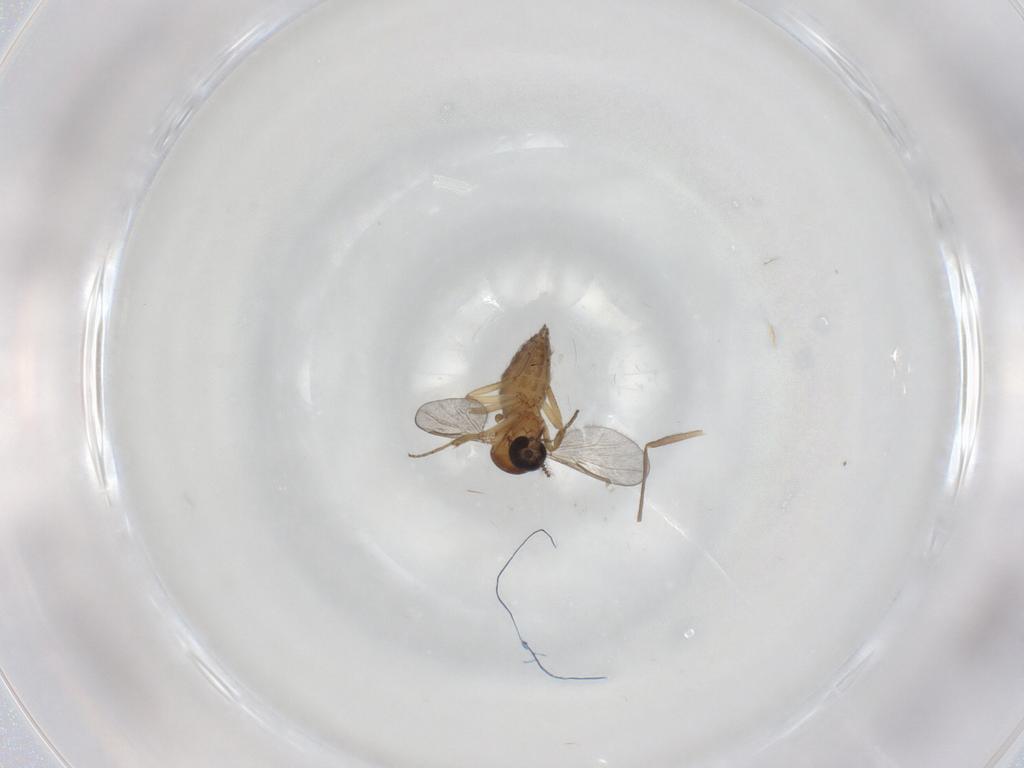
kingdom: Animalia
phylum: Arthropoda
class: Insecta
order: Diptera
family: Ceratopogonidae
